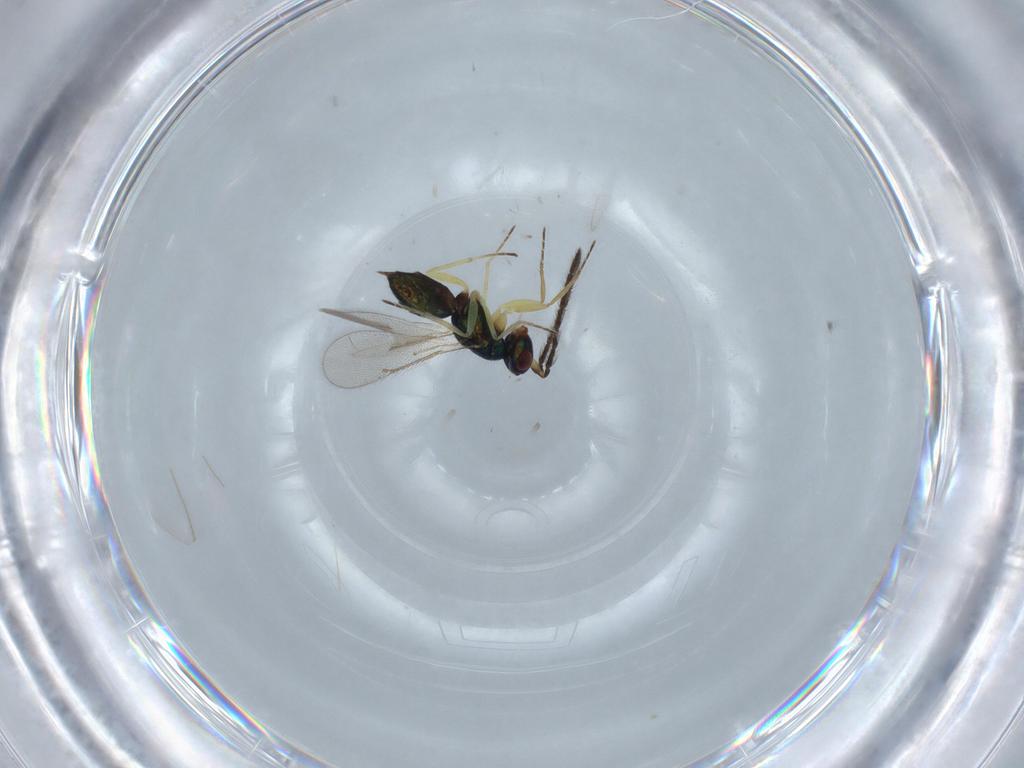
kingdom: Animalia
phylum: Arthropoda
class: Insecta
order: Hymenoptera
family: Eulophidae
